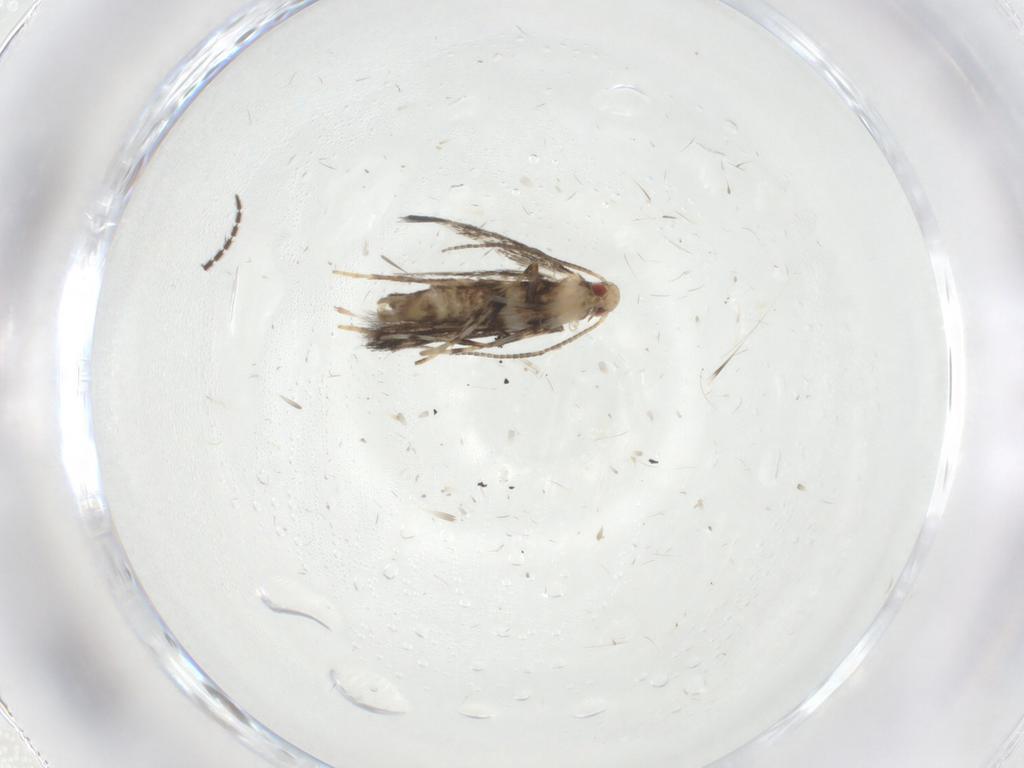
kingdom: Animalia
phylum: Arthropoda
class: Insecta
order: Lepidoptera
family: Gracillariidae
